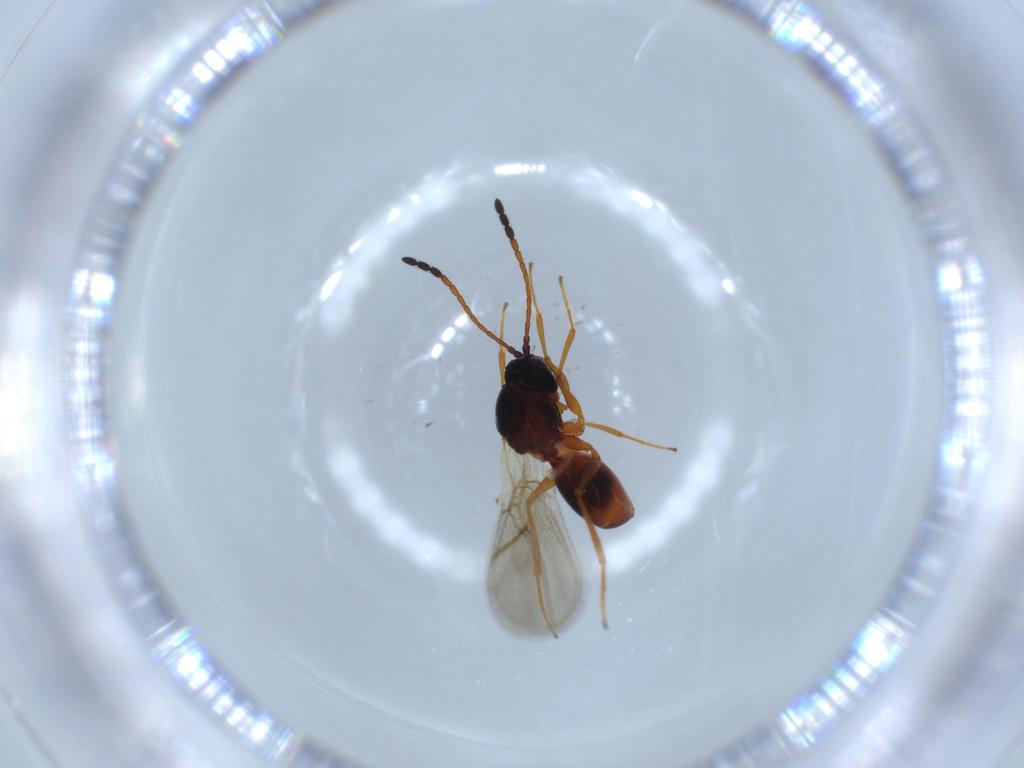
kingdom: Animalia
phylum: Arthropoda
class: Insecta
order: Hymenoptera
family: Figitidae
